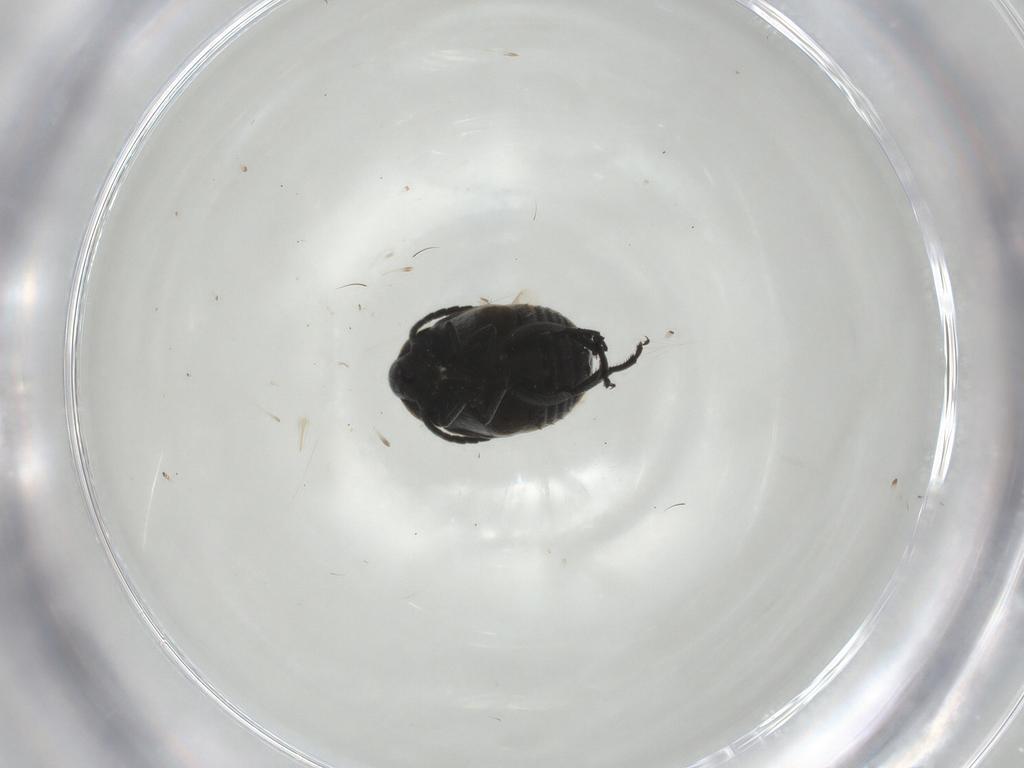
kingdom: Animalia
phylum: Arthropoda
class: Insecta
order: Coleoptera
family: Chrysomelidae
